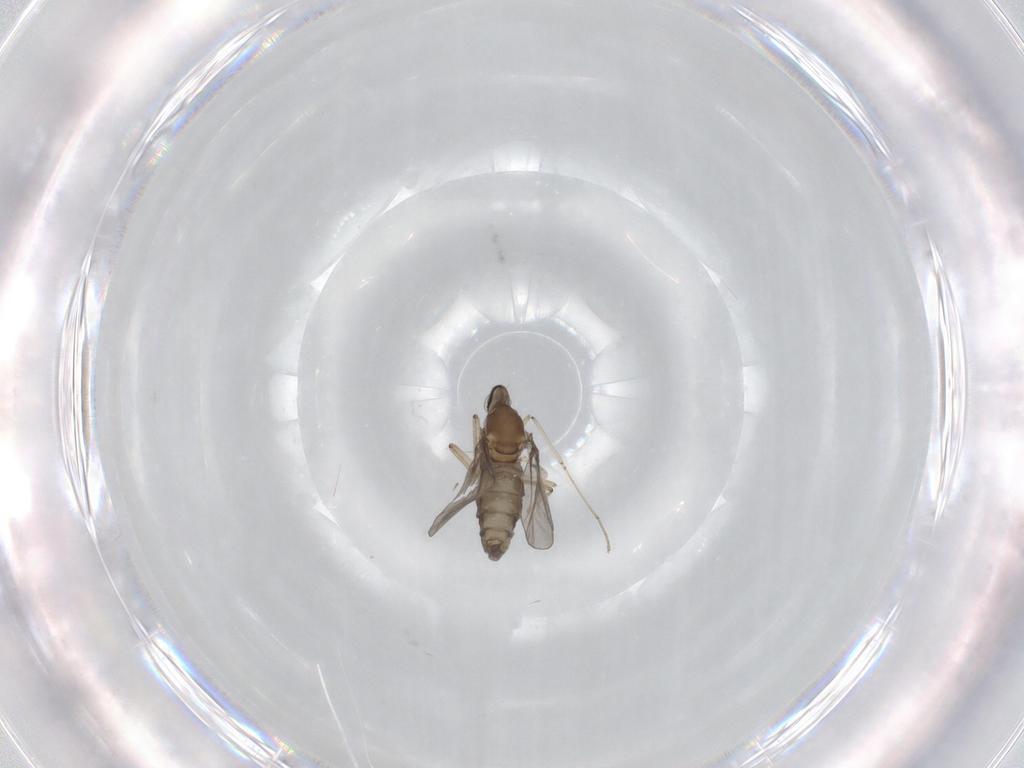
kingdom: Animalia
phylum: Arthropoda
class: Insecta
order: Diptera
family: Cecidomyiidae
